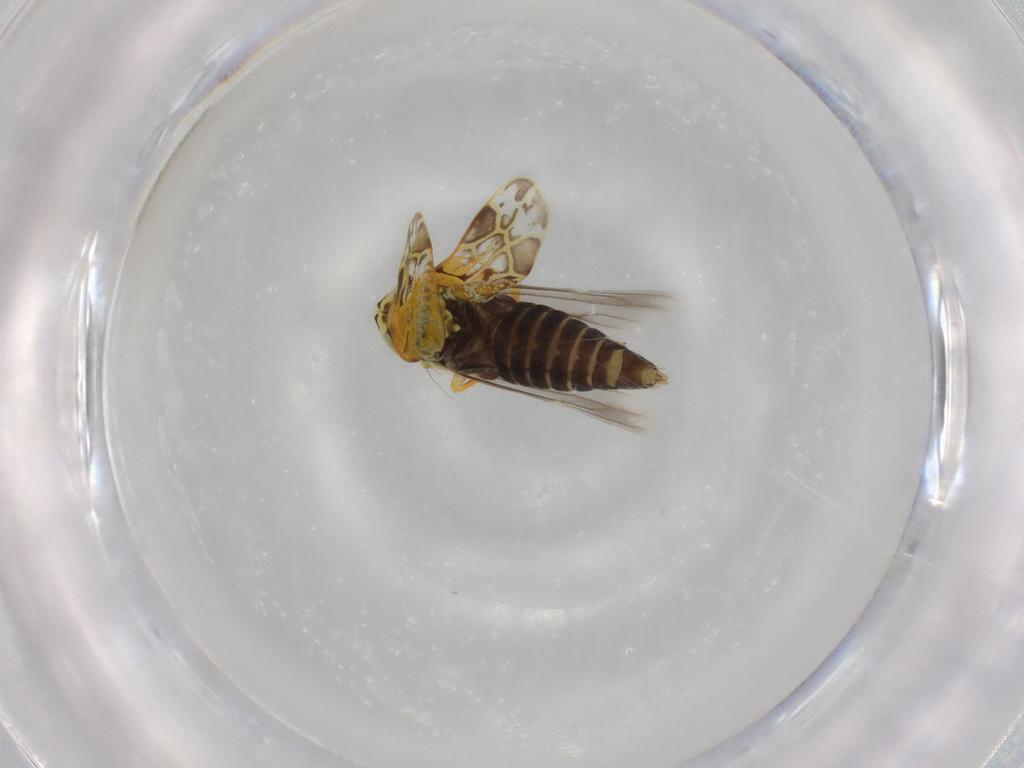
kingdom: Animalia
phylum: Arthropoda
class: Insecta
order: Hemiptera
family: Cicadellidae
